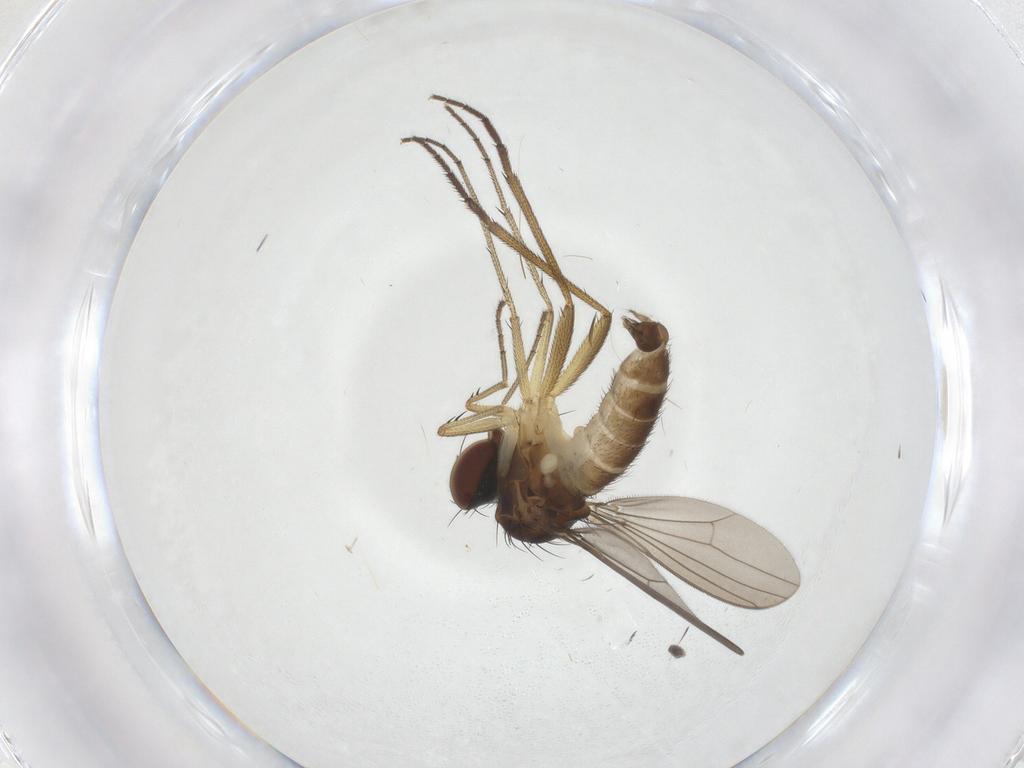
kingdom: Animalia
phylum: Arthropoda
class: Insecta
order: Diptera
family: Dolichopodidae
